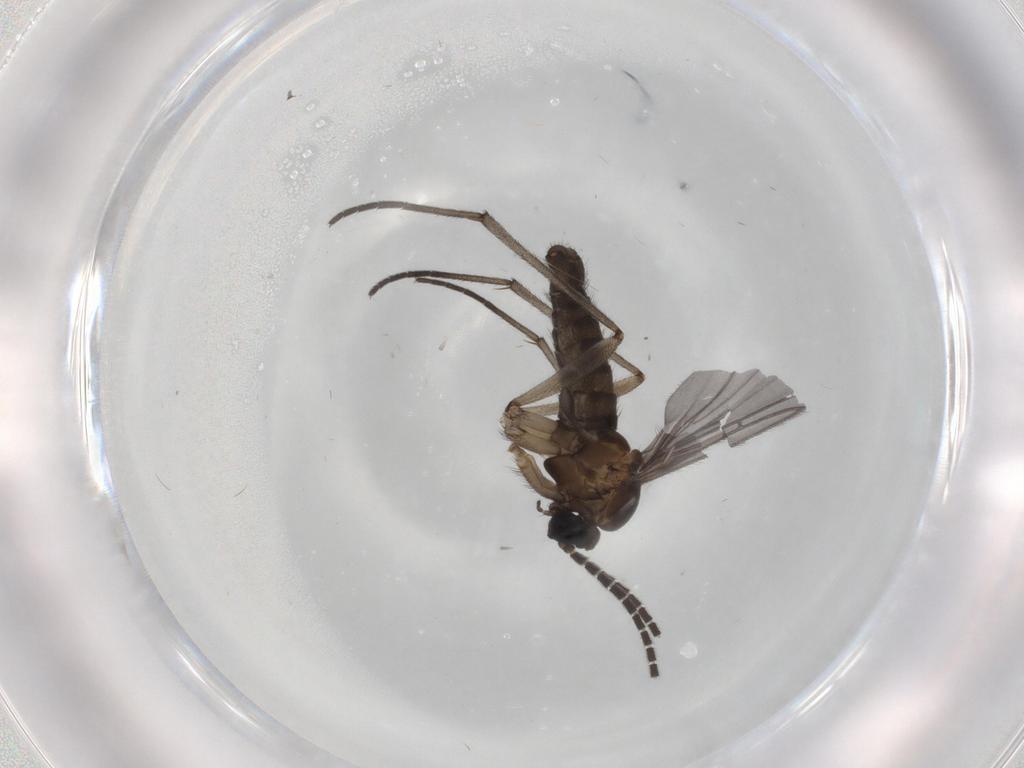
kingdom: Animalia
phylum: Arthropoda
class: Insecta
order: Diptera
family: Sciaridae
